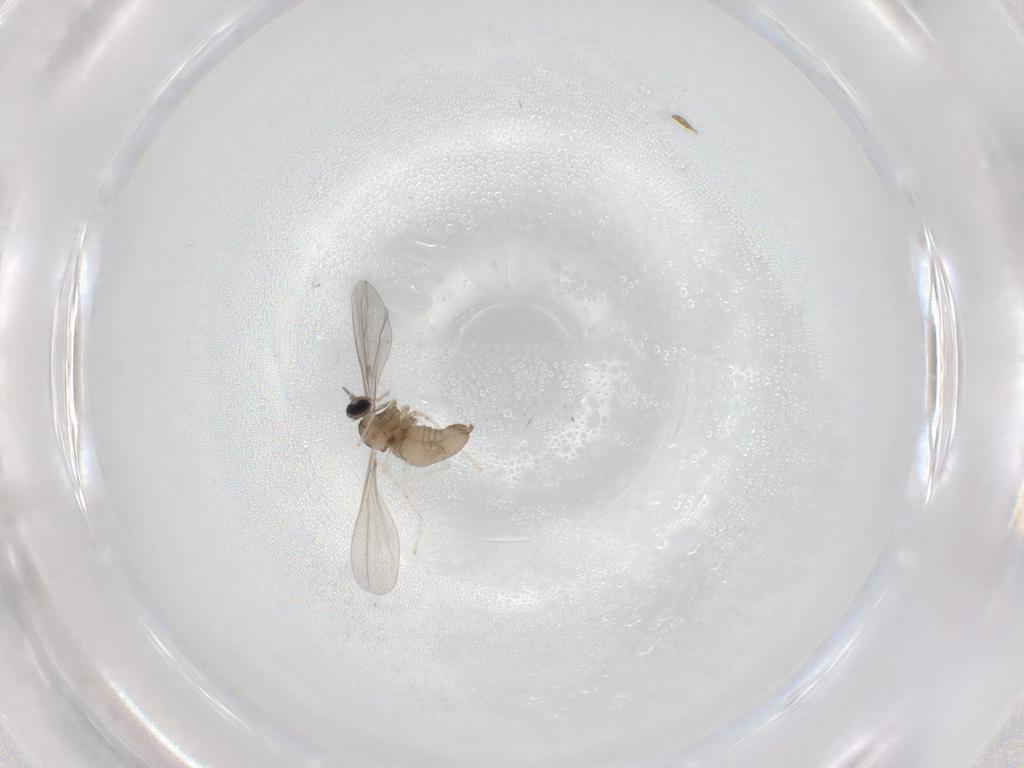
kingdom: Animalia
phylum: Arthropoda
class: Insecta
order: Diptera
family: Cecidomyiidae
